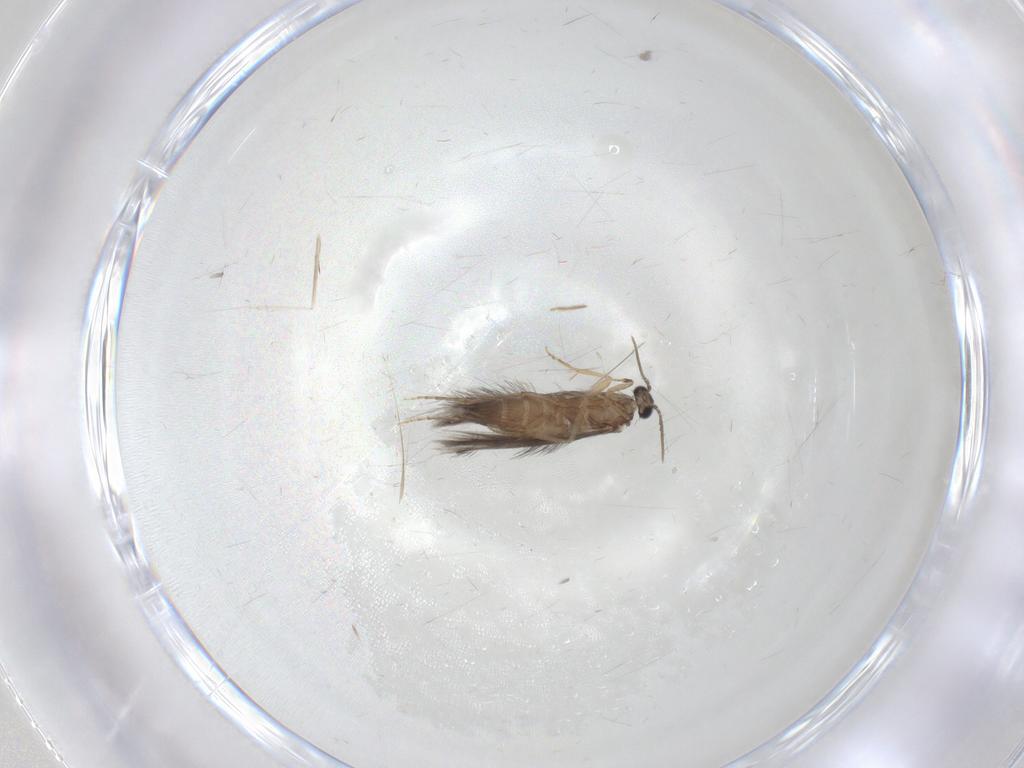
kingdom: Animalia
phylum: Arthropoda
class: Insecta
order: Trichoptera
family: Hydroptilidae
